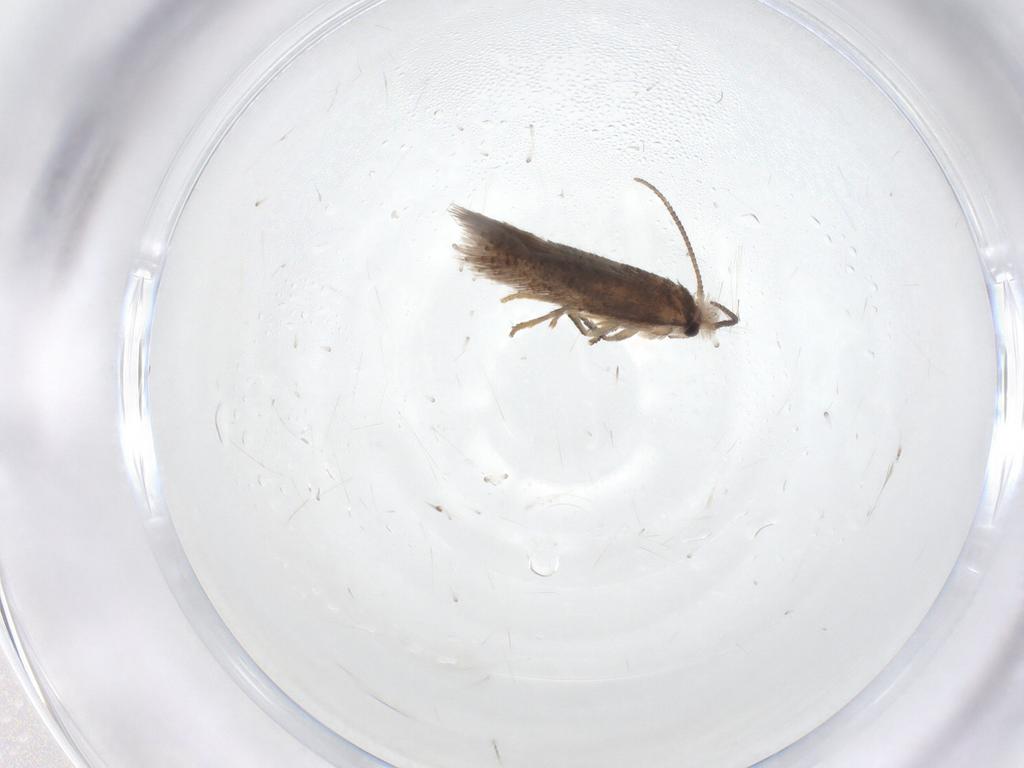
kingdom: Animalia
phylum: Arthropoda
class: Insecta
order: Lepidoptera
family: Nepticulidae
